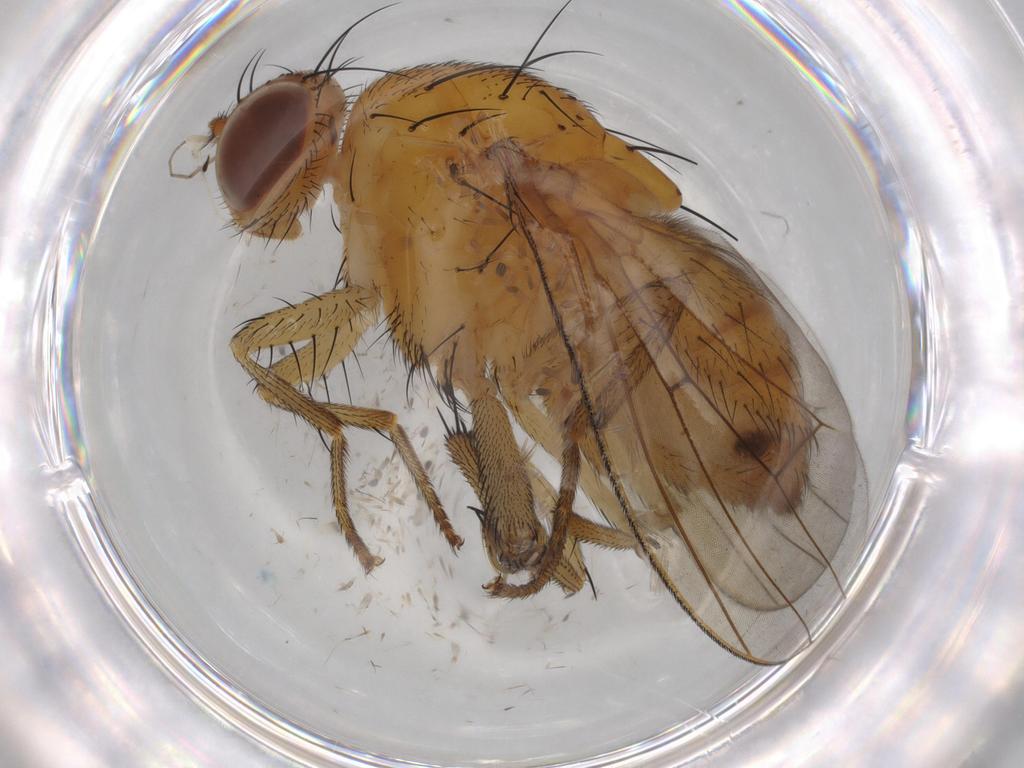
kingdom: Animalia
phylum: Arthropoda
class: Insecta
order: Diptera
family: Ceratopogonidae
